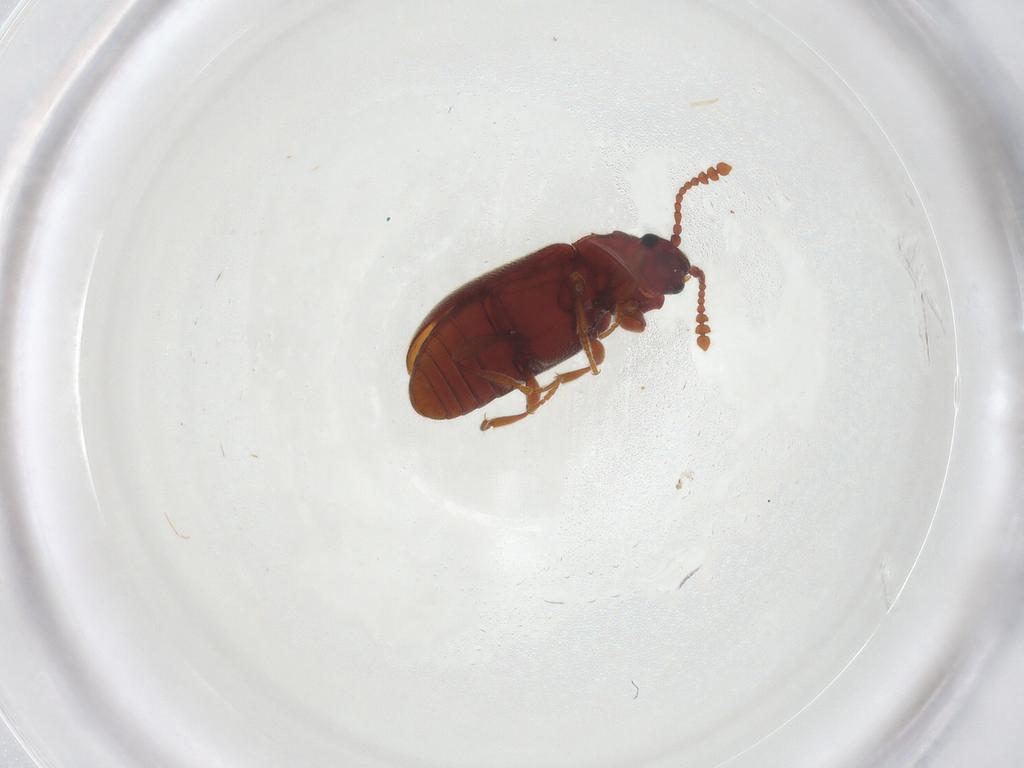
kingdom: Animalia
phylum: Arthropoda
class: Insecta
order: Coleoptera
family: Cryptophagidae
